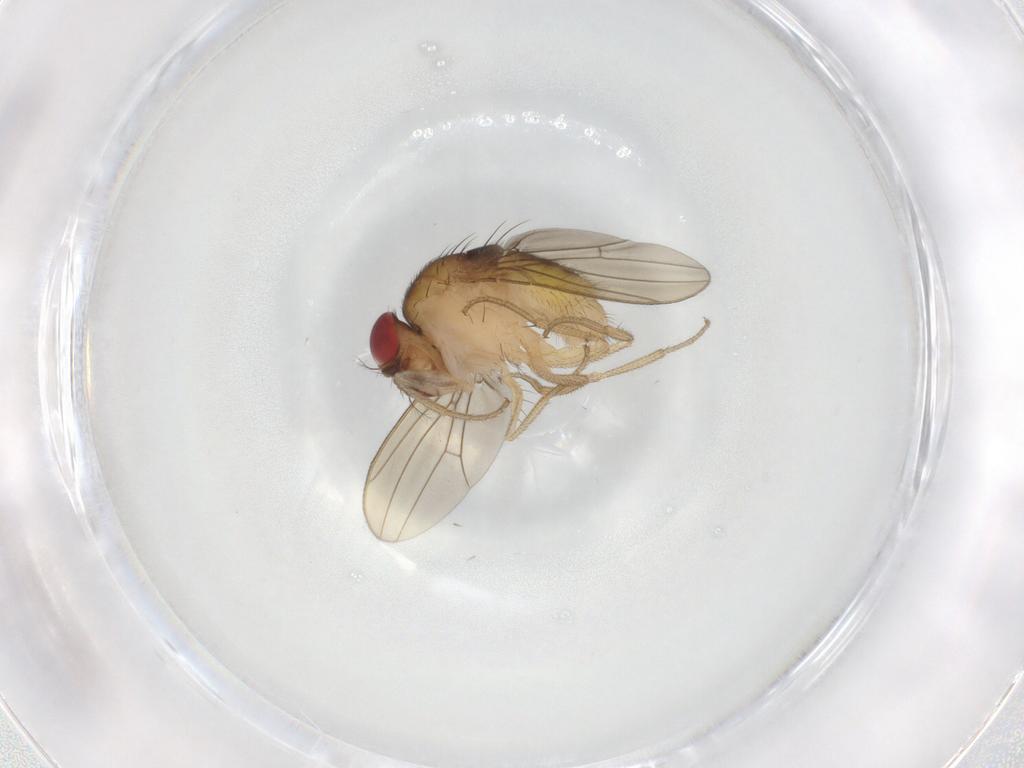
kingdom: Animalia
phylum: Arthropoda
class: Insecta
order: Diptera
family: Drosophilidae
